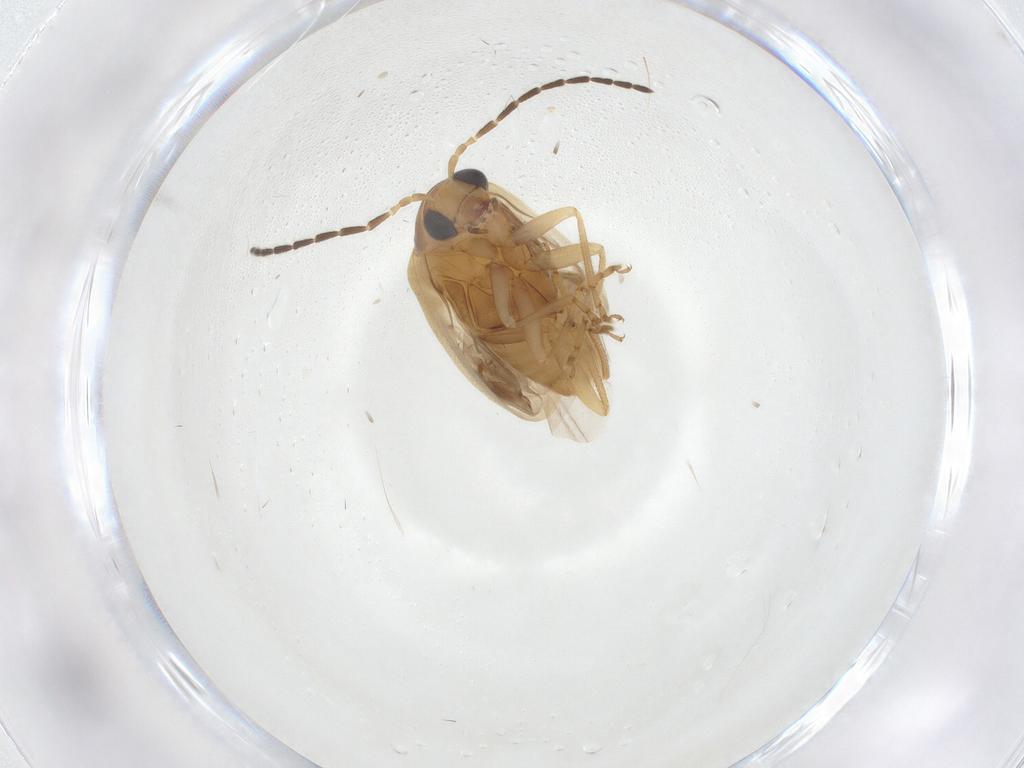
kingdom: Animalia
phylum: Arthropoda
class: Insecta
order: Coleoptera
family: Chrysomelidae
